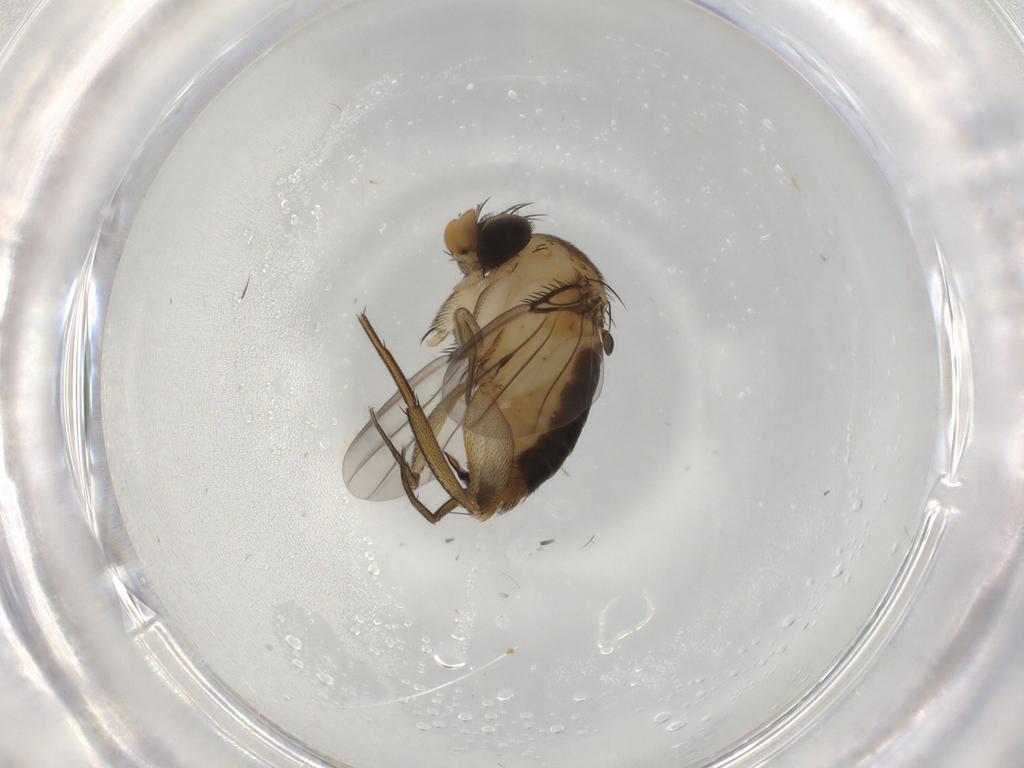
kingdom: Animalia
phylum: Arthropoda
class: Insecta
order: Diptera
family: Phoridae
